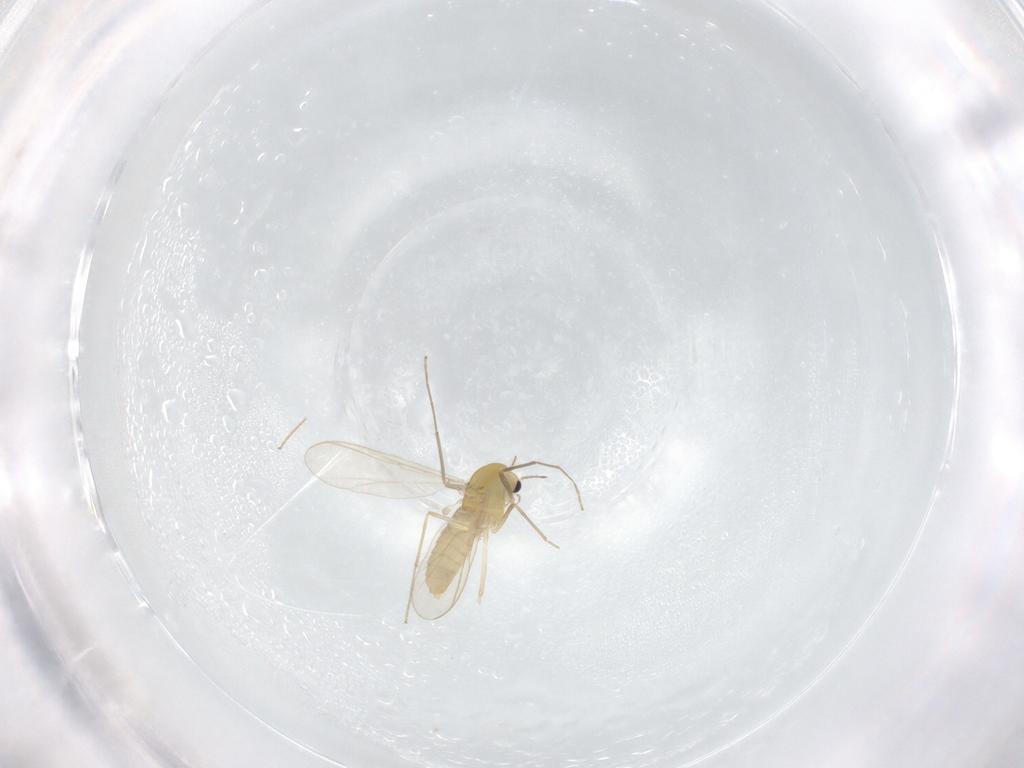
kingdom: Animalia
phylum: Arthropoda
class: Insecta
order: Diptera
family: Chironomidae
